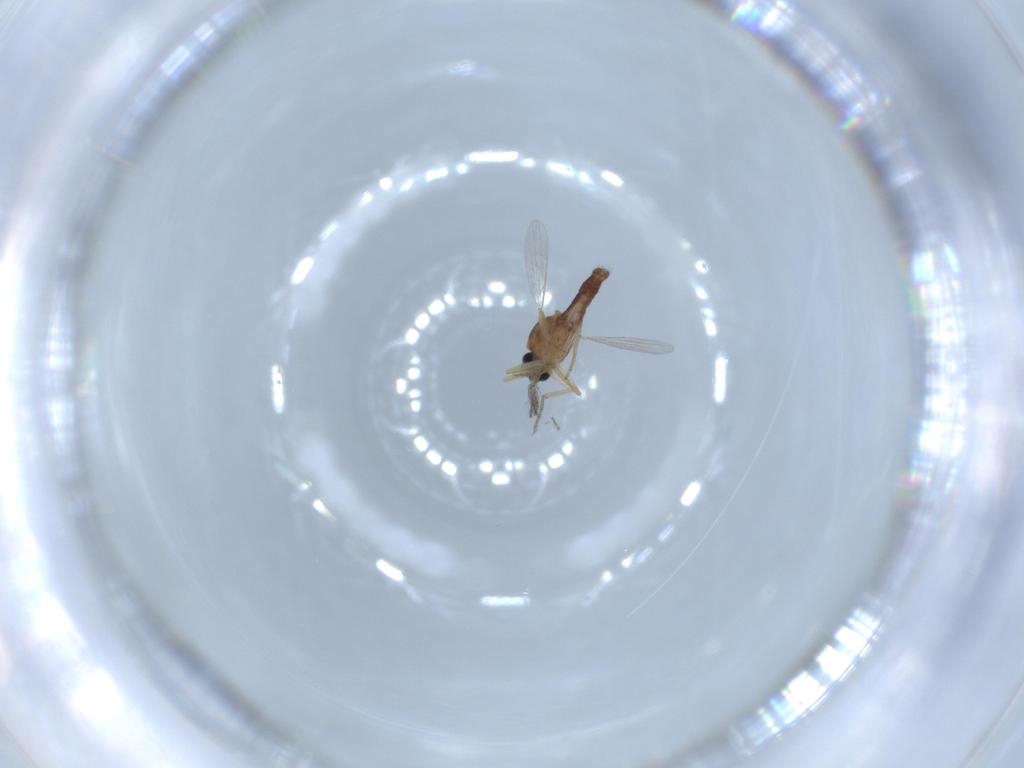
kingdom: Animalia
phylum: Arthropoda
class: Insecta
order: Diptera
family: Ceratopogonidae
